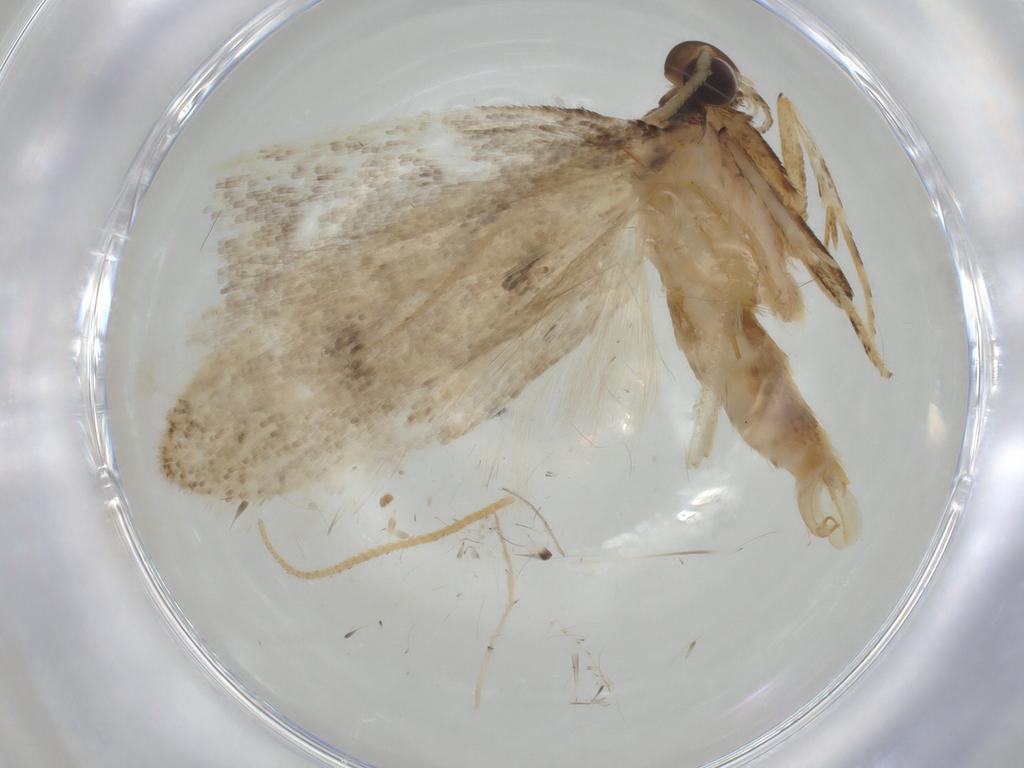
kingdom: Animalia
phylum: Arthropoda
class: Insecta
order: Lepidoptera
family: Gelechiidae
